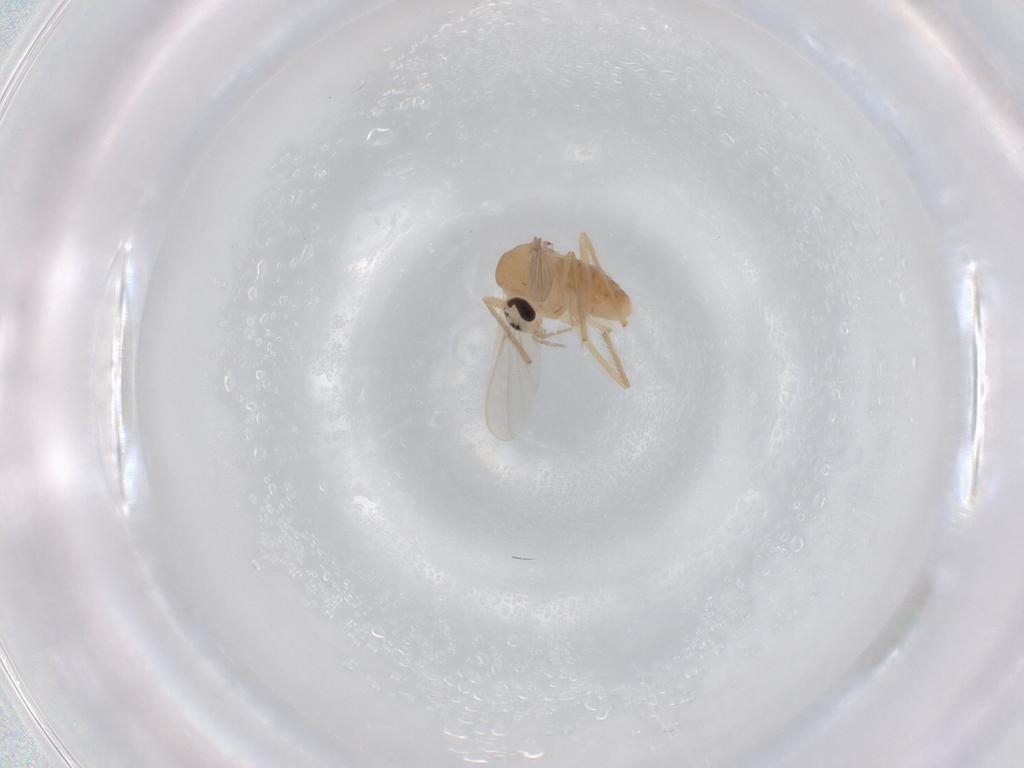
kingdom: Animalia
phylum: Arthropoda
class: Insecta
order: Diptera
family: Chironomidae
